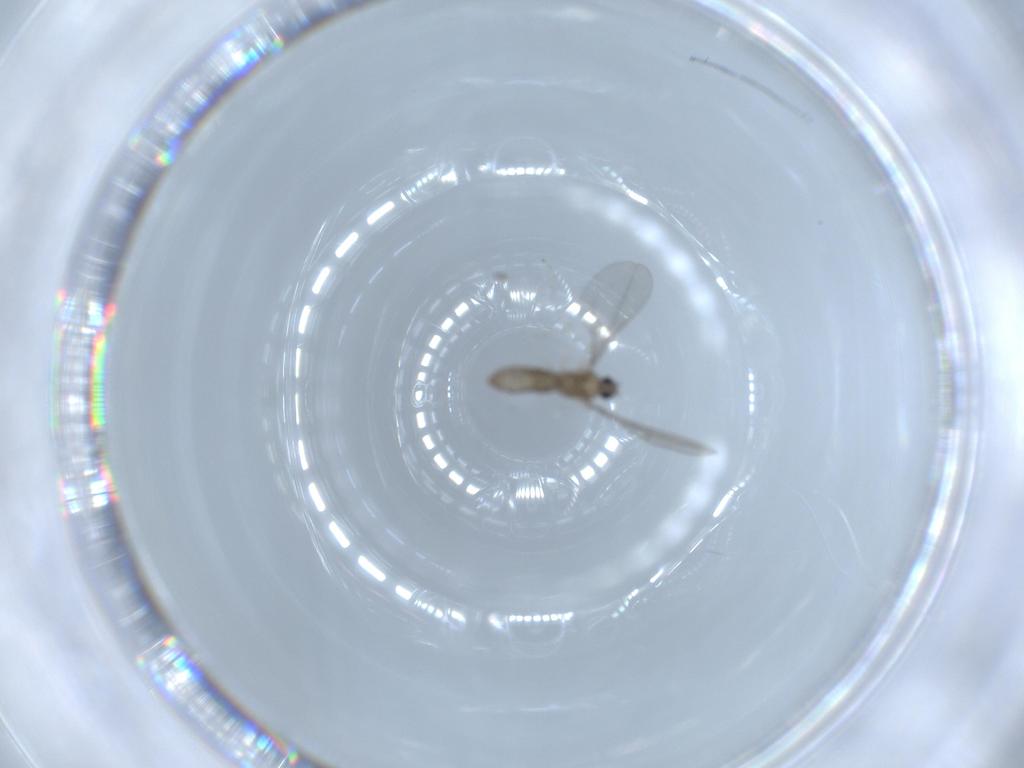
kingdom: Animalia
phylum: Arthropoda
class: Insecta
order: Diptera
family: Cecidomyiidae
